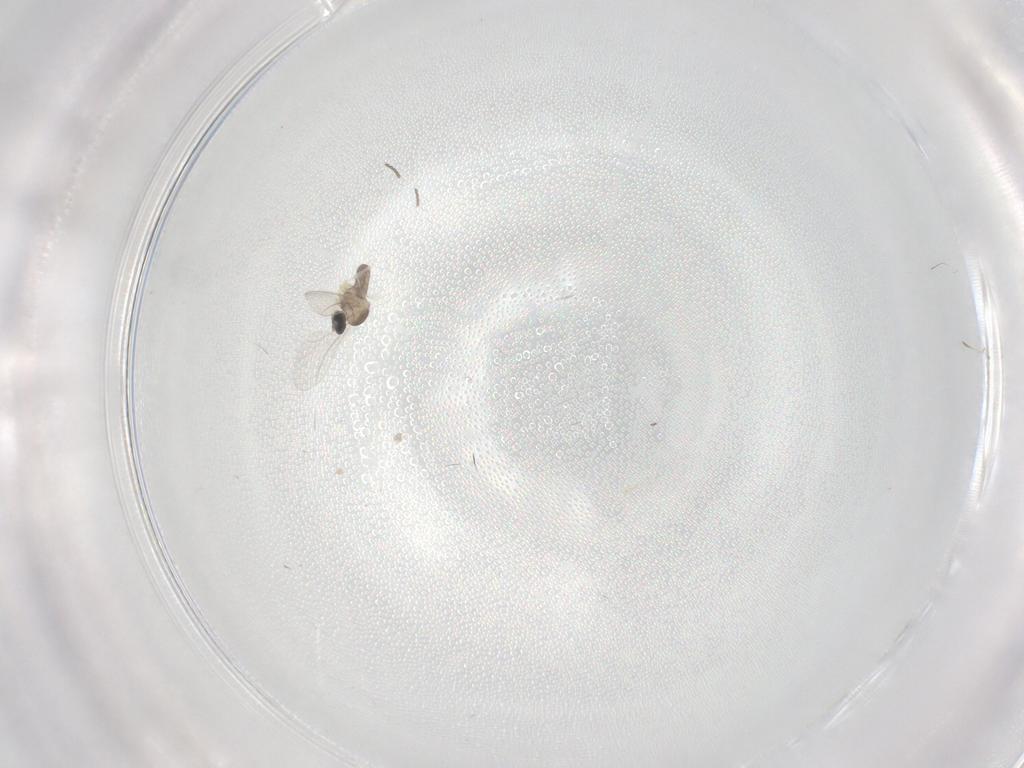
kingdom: Animalia
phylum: Arthropoda
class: Insecta
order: Diptera
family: Cecidomyiidae
